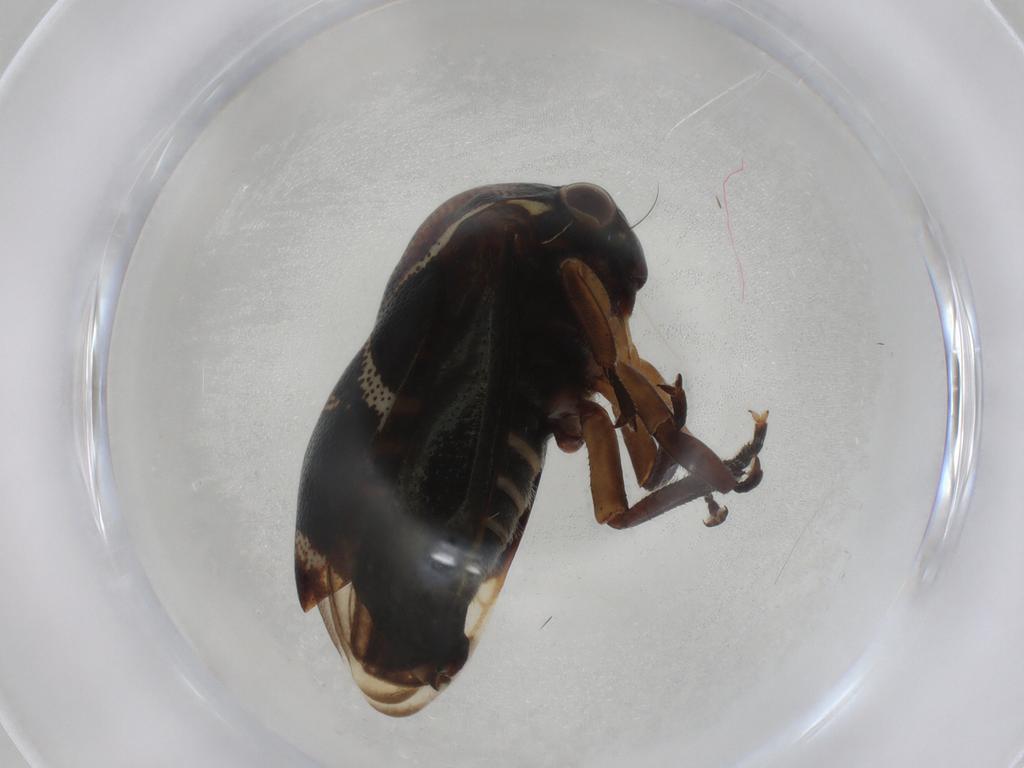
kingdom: Animalia
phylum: Arthropoda
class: Insecta
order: Hemiptera
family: Membracidae
